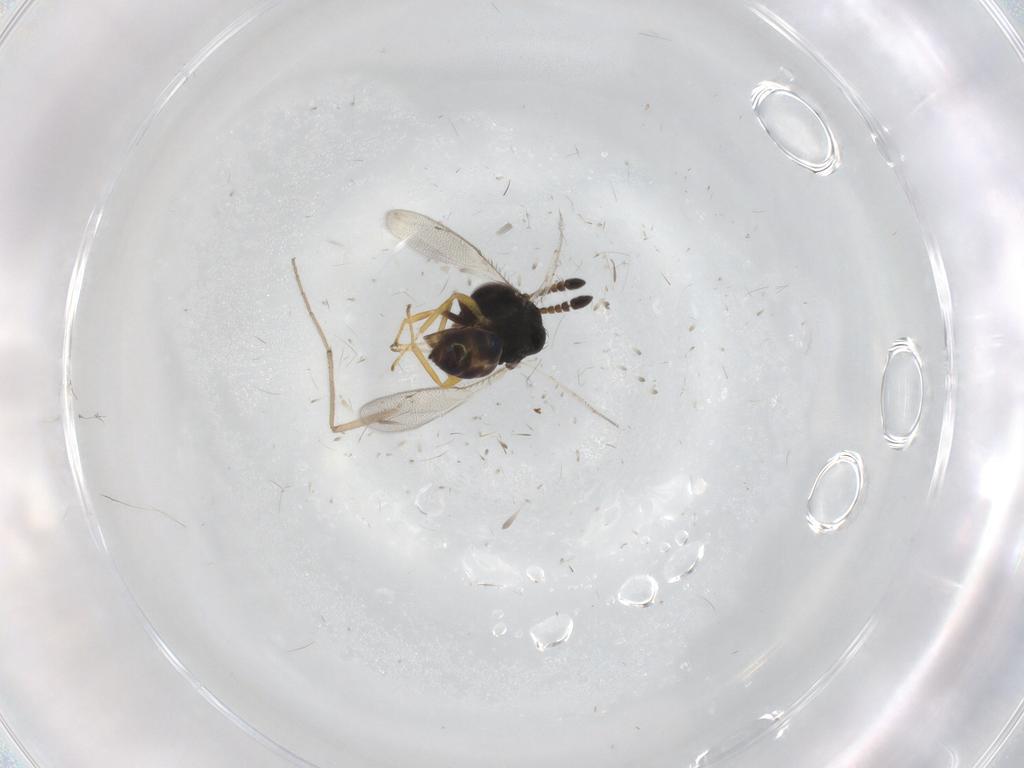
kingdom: Animalia
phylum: Arthropoda
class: Insecta
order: Hymenoptera
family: Pteromalidae
